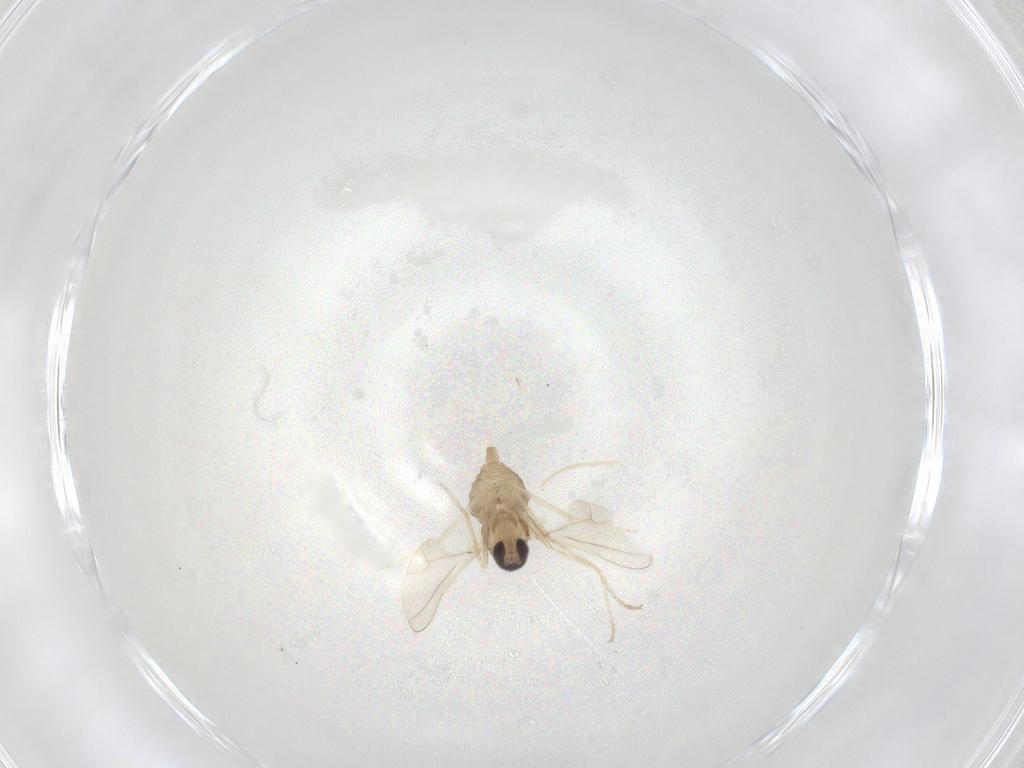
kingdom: Animalia
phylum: Arthropoda
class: Insecta
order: Diptera
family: Cecidomyiidae
